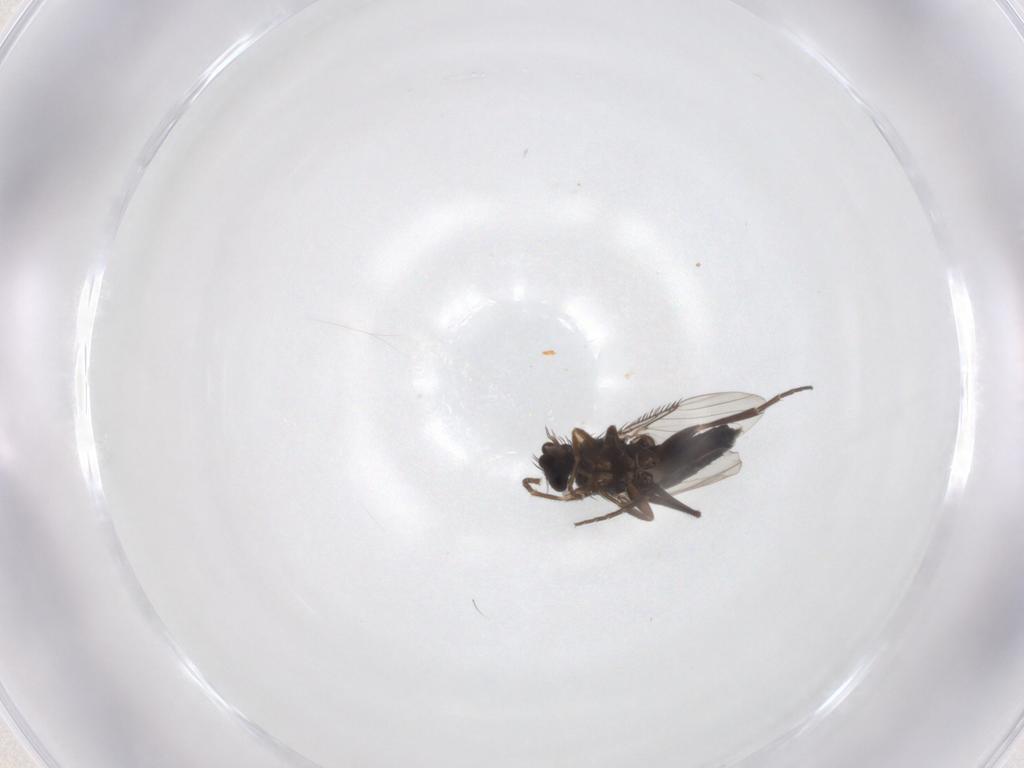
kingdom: Animalia
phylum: Arthropoda
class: Insecta
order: Diptera
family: Phoridae
